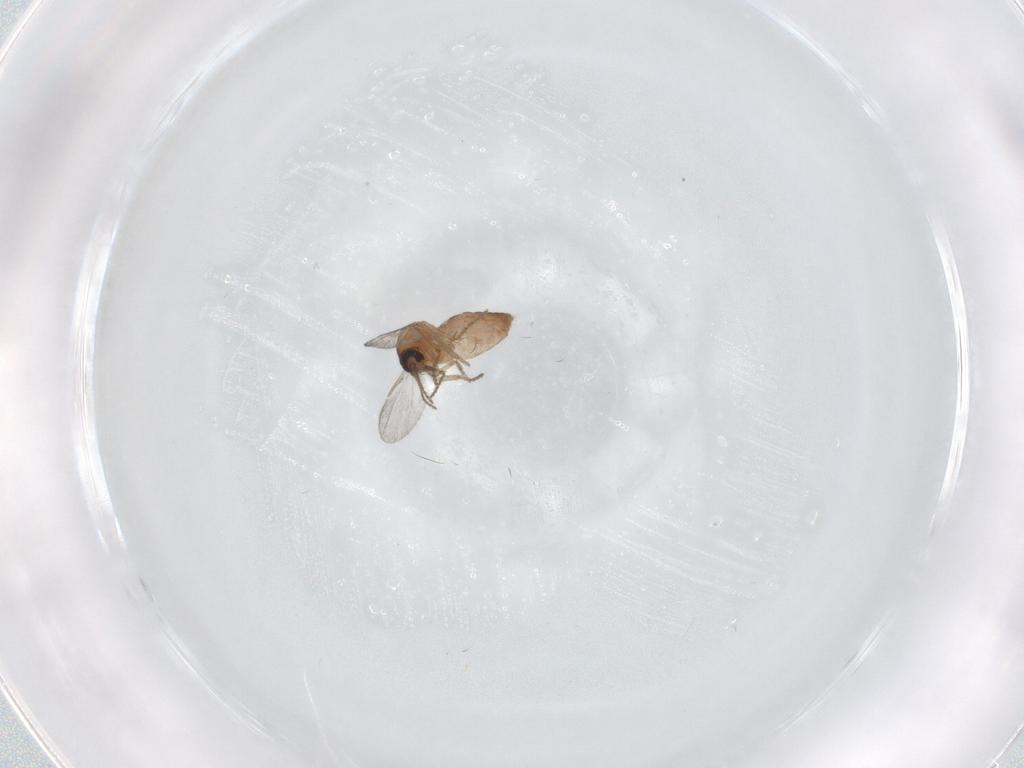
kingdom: Animalia
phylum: Arthropoda
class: Insecta
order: Diptera
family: Ceratopogonidae
